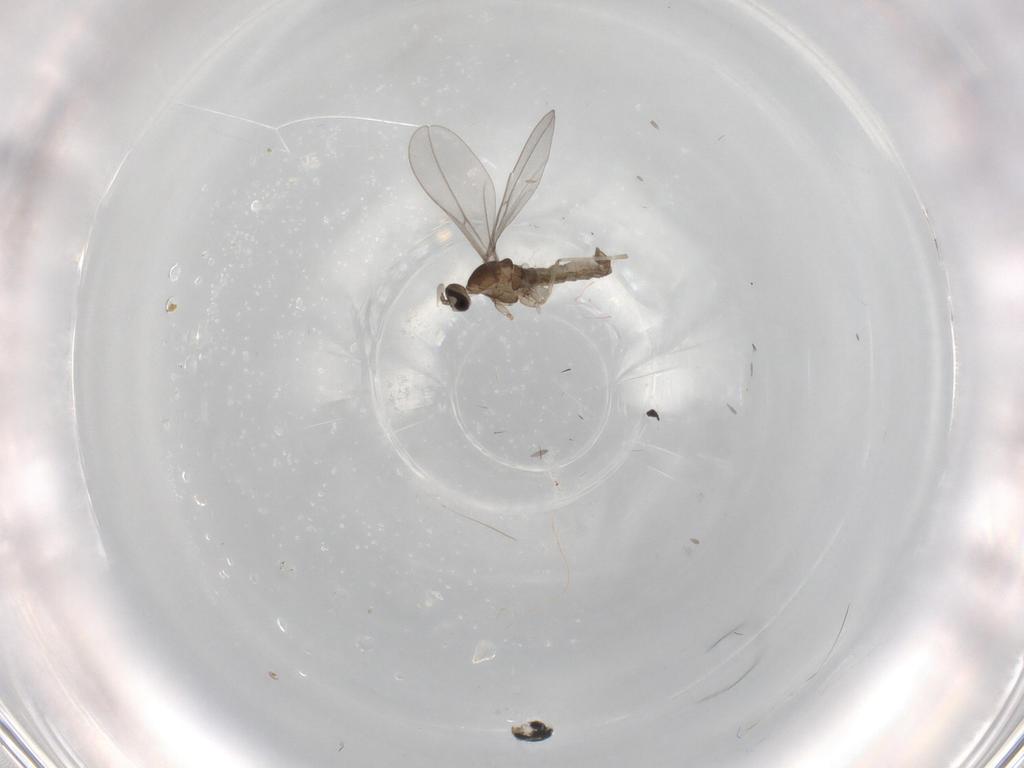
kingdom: Animalia
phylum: Arthropoda
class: Insecta
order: Diptera
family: Cecidomyiidae
